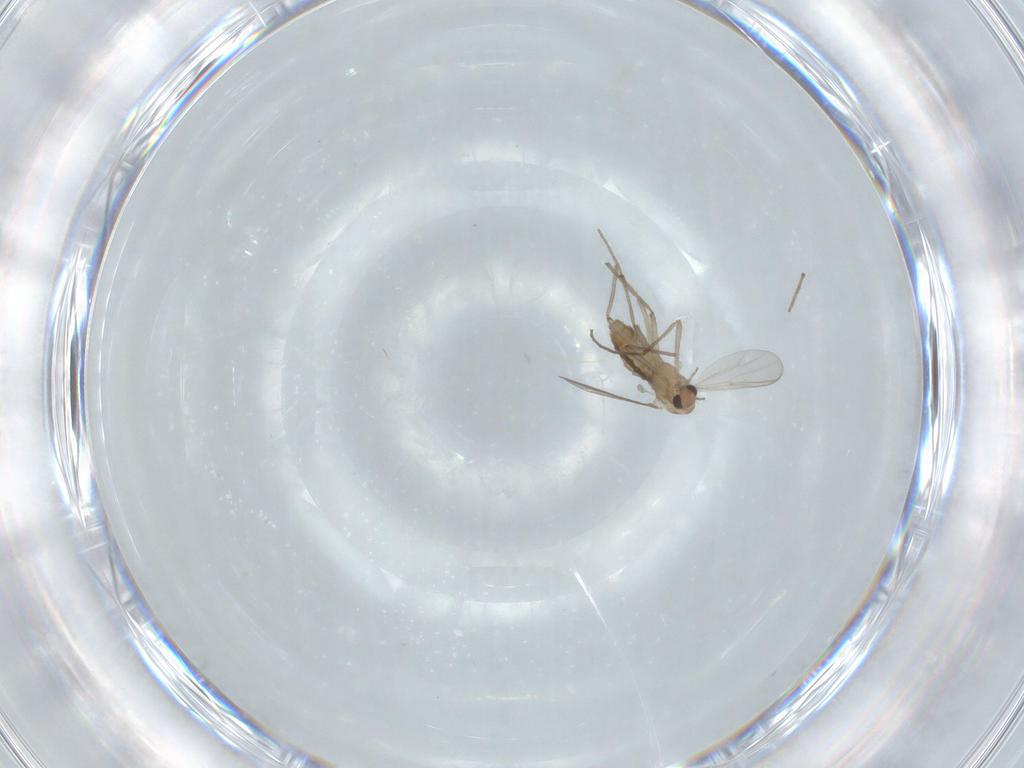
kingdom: Animalia
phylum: Arthropoda
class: Insecta
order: Diptera
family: Chironomidae
